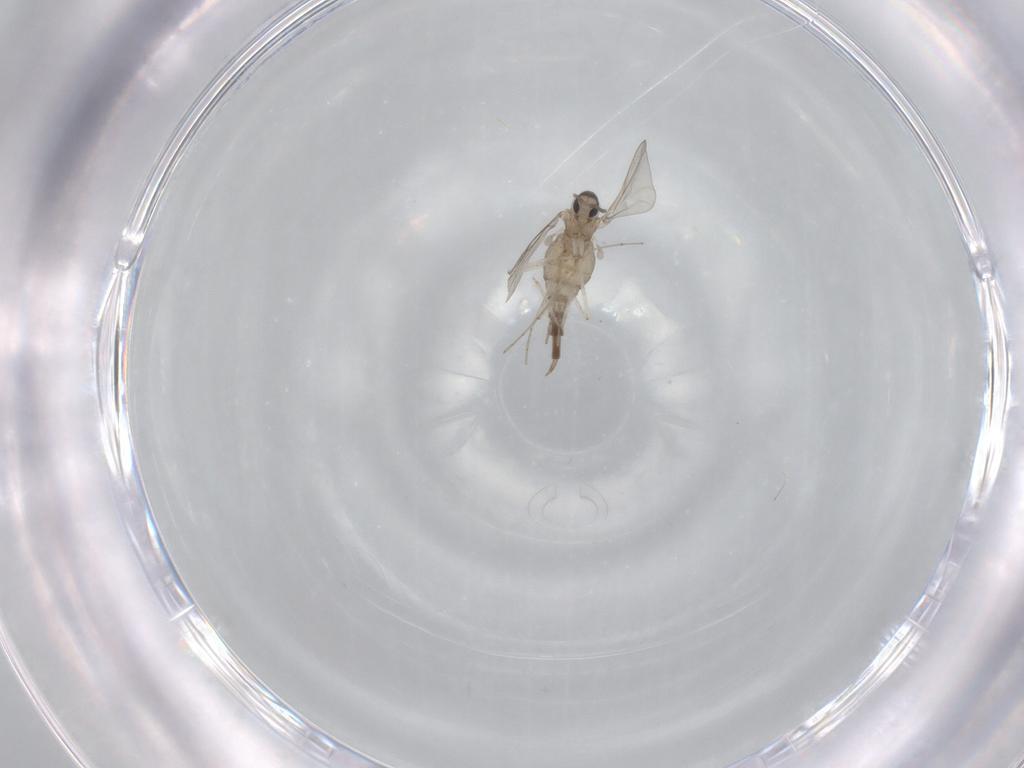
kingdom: Animalia
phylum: Arthropoda
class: Insecta
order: Diptera
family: Cecidomyiidae
